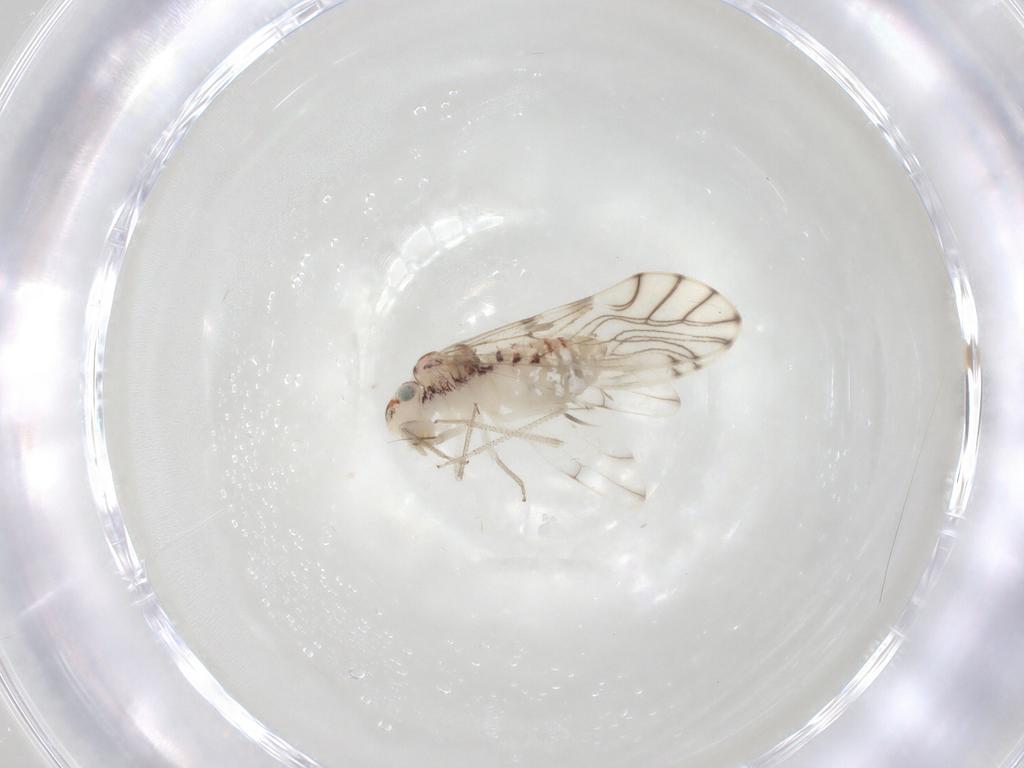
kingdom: Animalia
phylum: Arthropoda
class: Insecta
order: Psocodea
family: Philotarsidae
